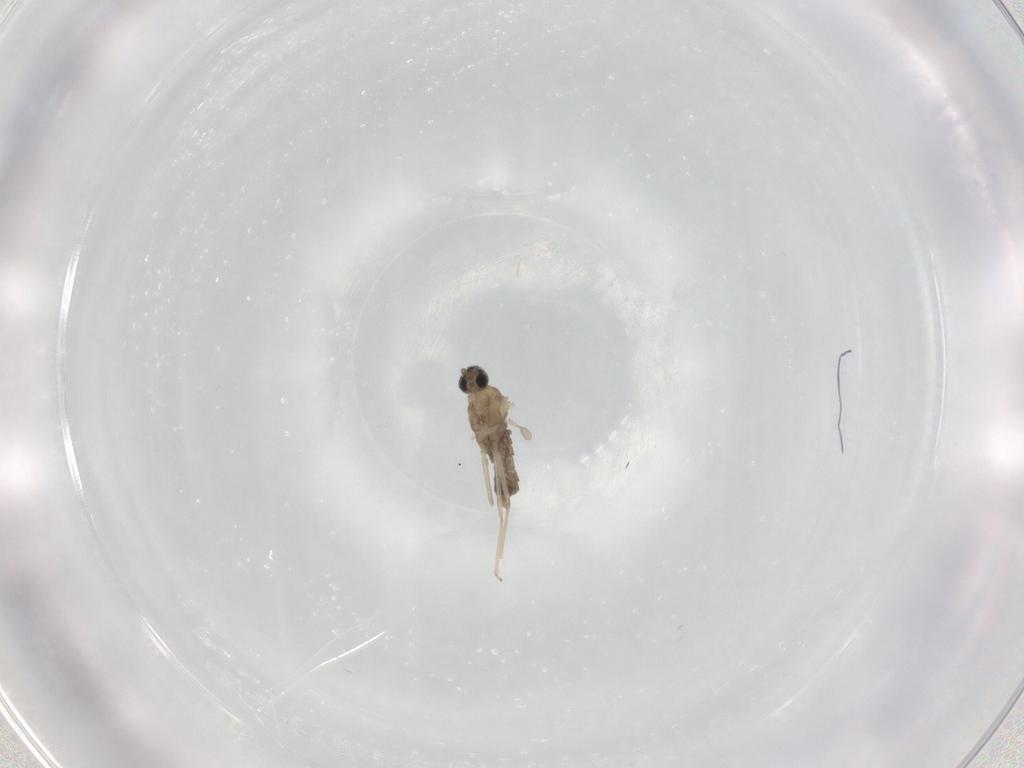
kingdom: Animalia
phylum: Arthropoda
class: Insecta
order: Diptera
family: Cecidomyiidae
